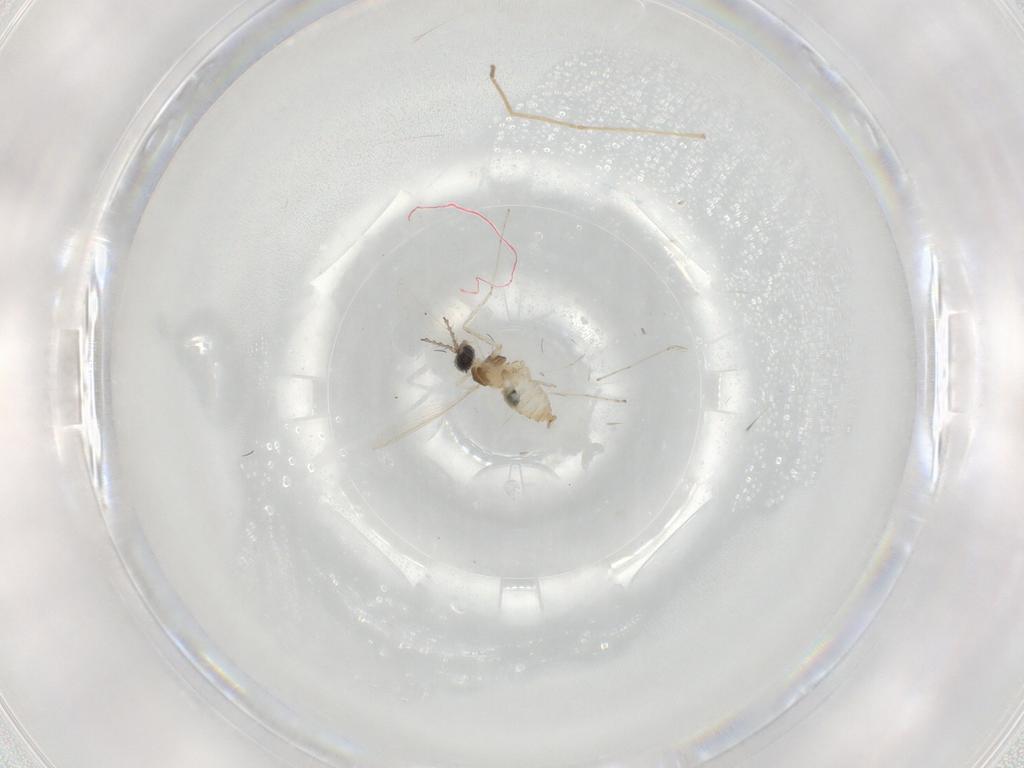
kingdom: Animalia
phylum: Arthropoda
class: Insecta
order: Diptera
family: Cecidomyiidae
